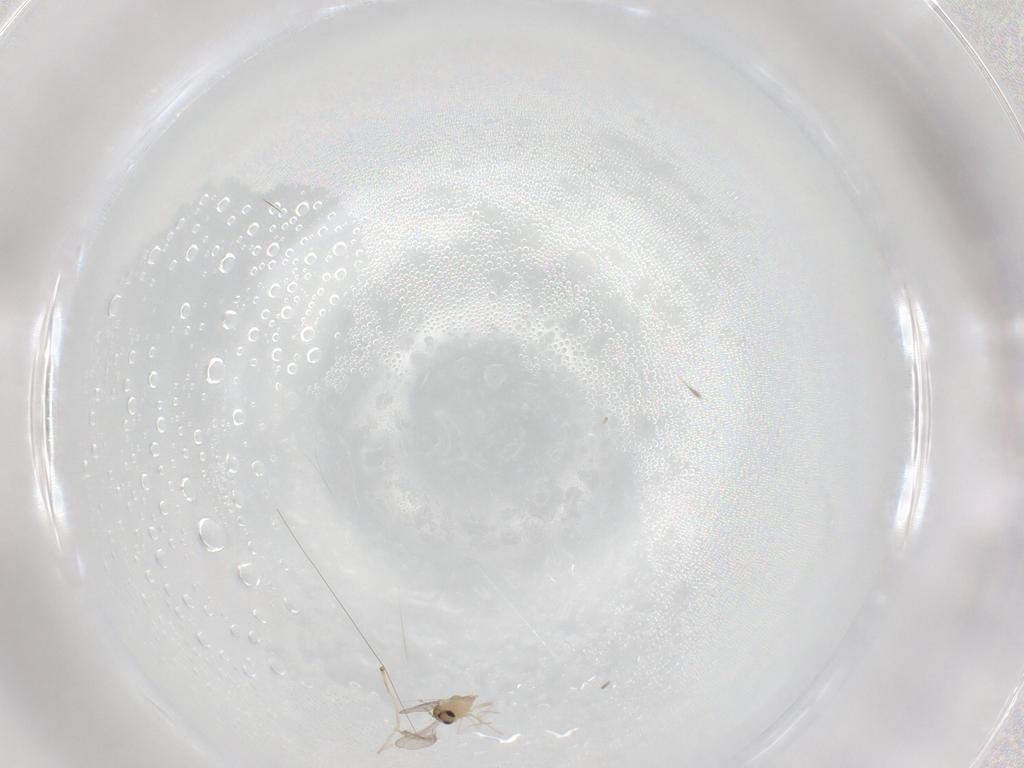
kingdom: Animalia
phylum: Arthropoda
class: Insecta
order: Diptera
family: Cecidomyiidae
